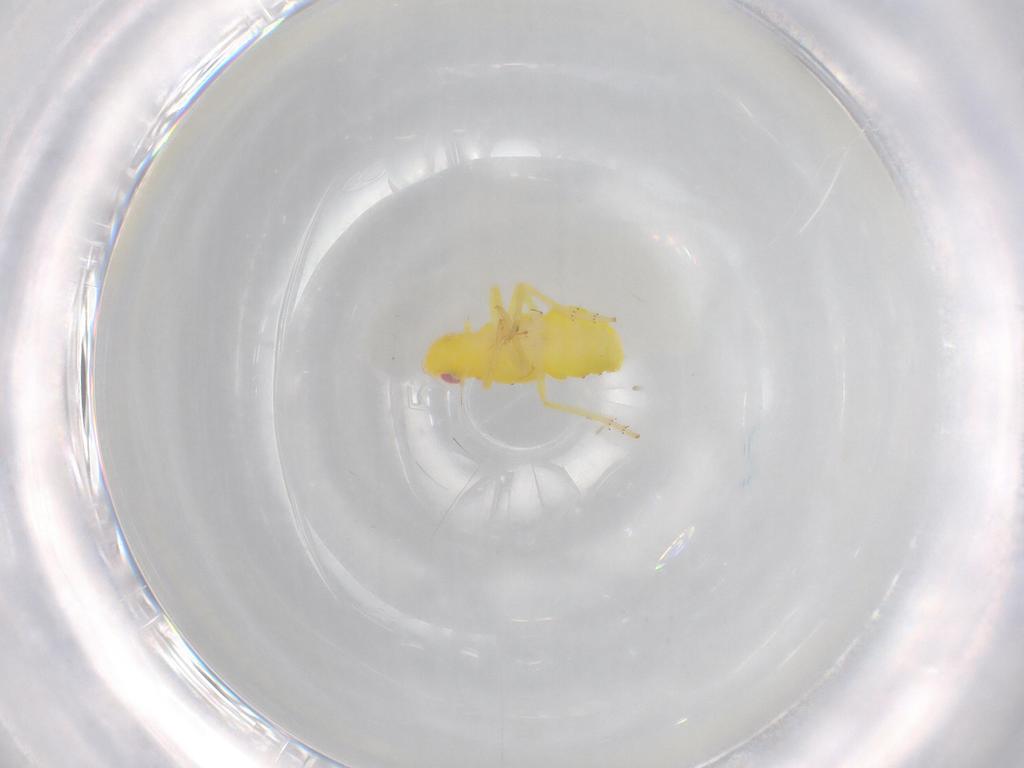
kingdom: Animalia
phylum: Arthropoda
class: Insecta
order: Hemiptera
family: Tropiduchidae
